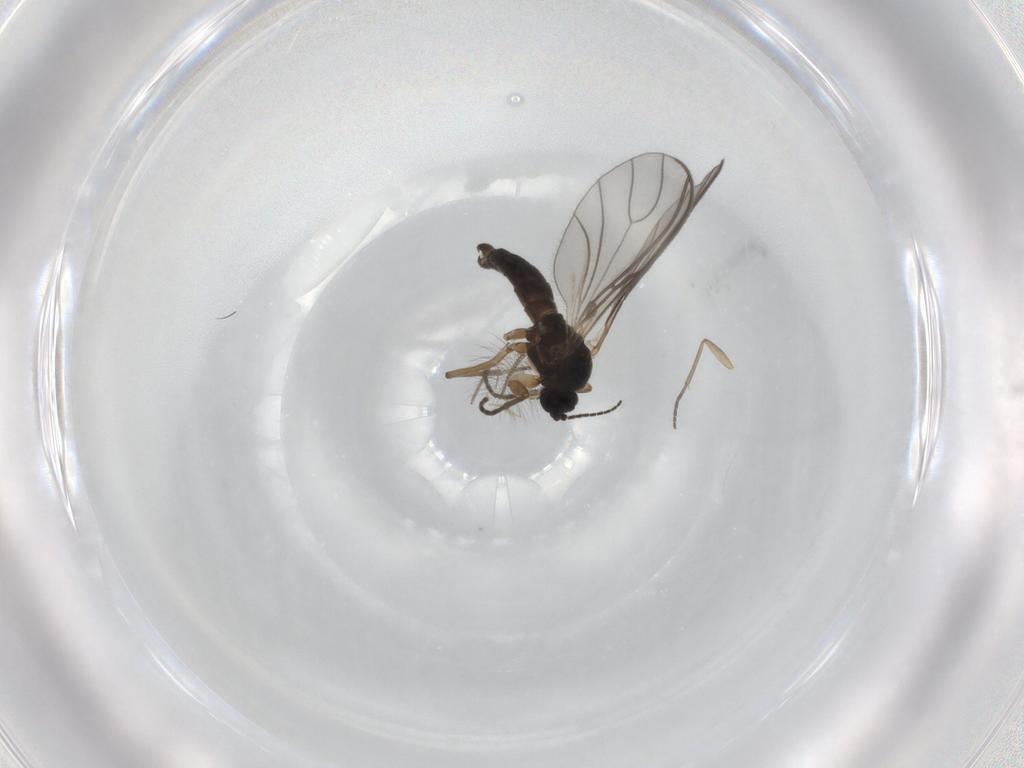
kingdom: Animalia
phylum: Arthropoda
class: Insecta
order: Diptera
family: Sciaridae
